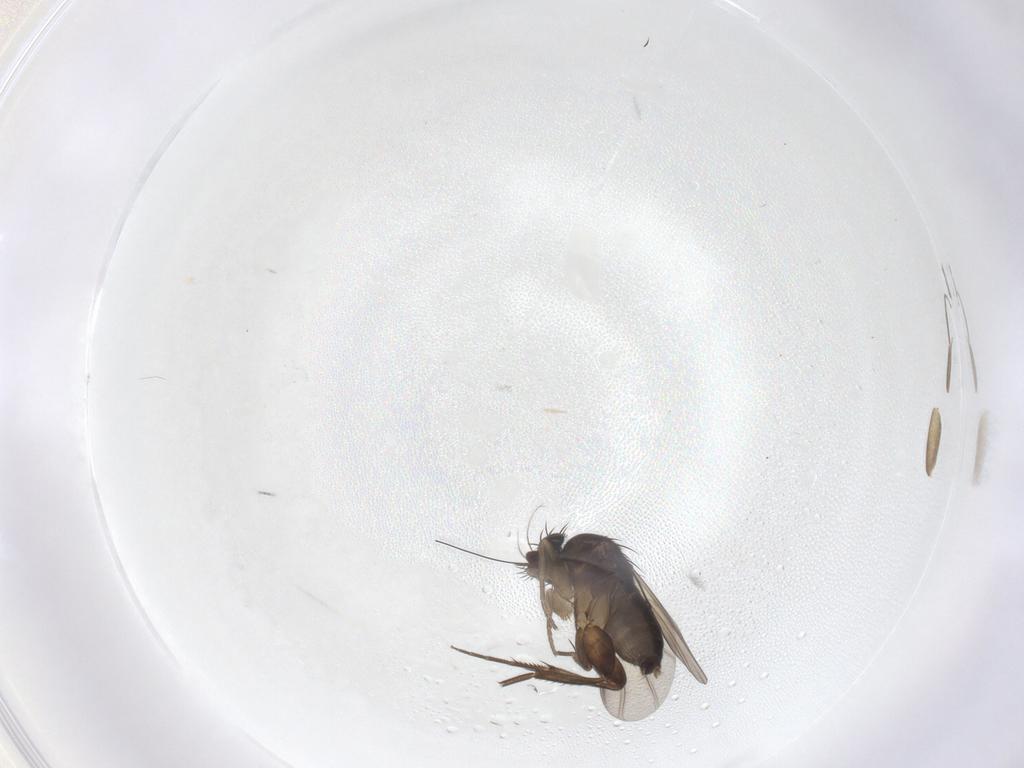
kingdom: Animalia
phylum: Arthropoda
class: Insecta
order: Diptera
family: Phoridae
